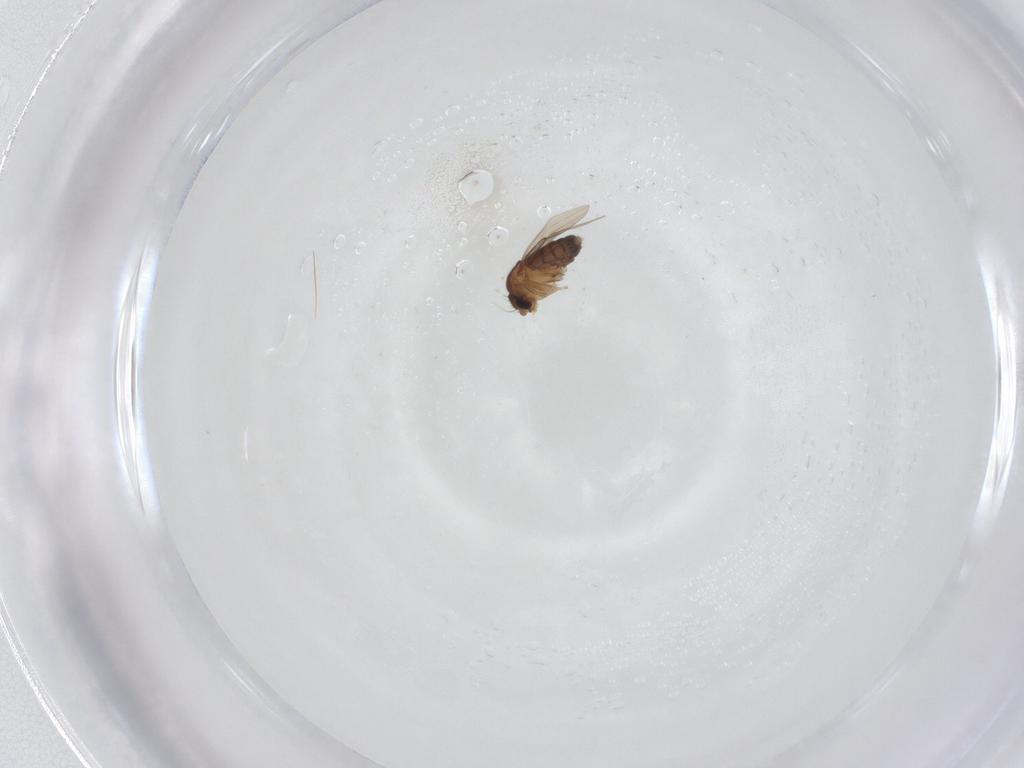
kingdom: Animalia
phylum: Arthropoda
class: Insecta
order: Diptera
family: Phoridae
